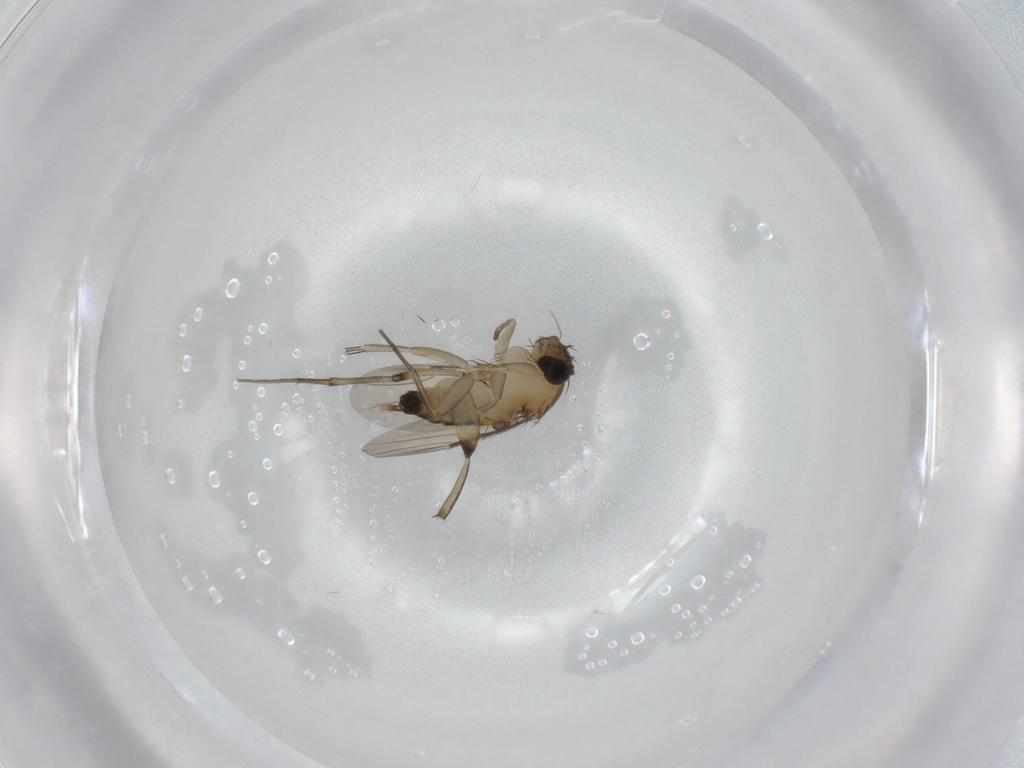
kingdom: Animalia
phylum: Arthropoda
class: Insecta
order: Diptera
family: Phoridae
